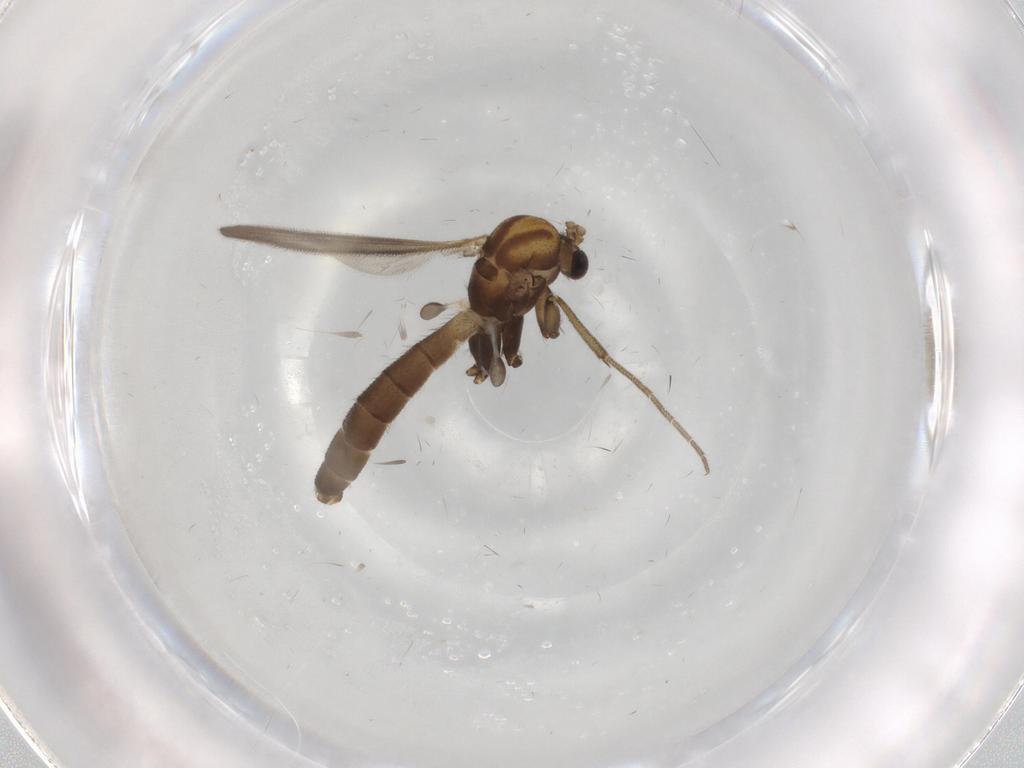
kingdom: Animalia
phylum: Arthropoda
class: Insecta
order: Diptera
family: Cecidomyiidae
